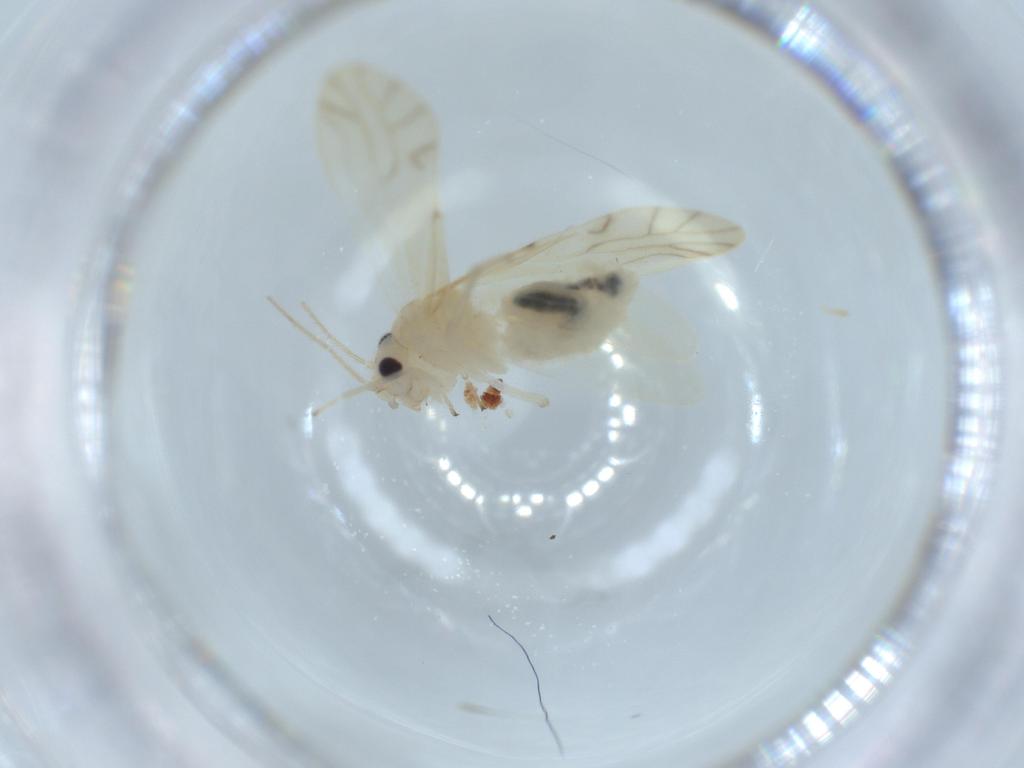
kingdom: Animalia
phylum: Arthropoda
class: Insecta
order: Psocodea
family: Caeciliusidae
